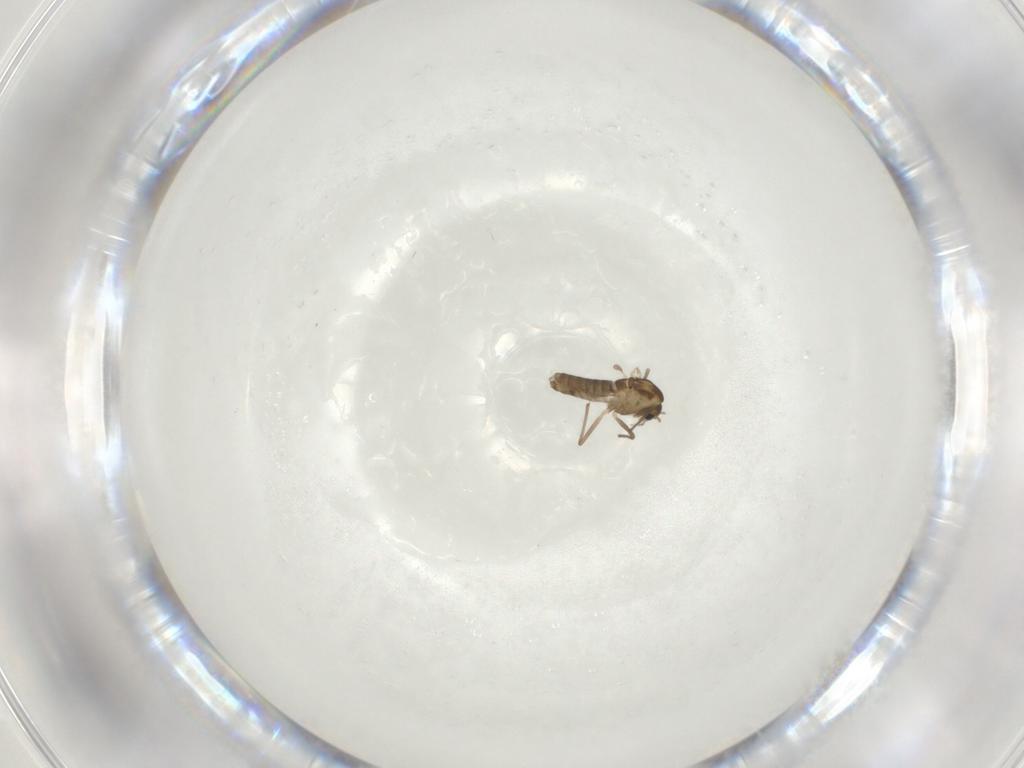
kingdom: Animalia
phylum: Arthropoda
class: Insecta
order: Diptera
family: Chironomidae
